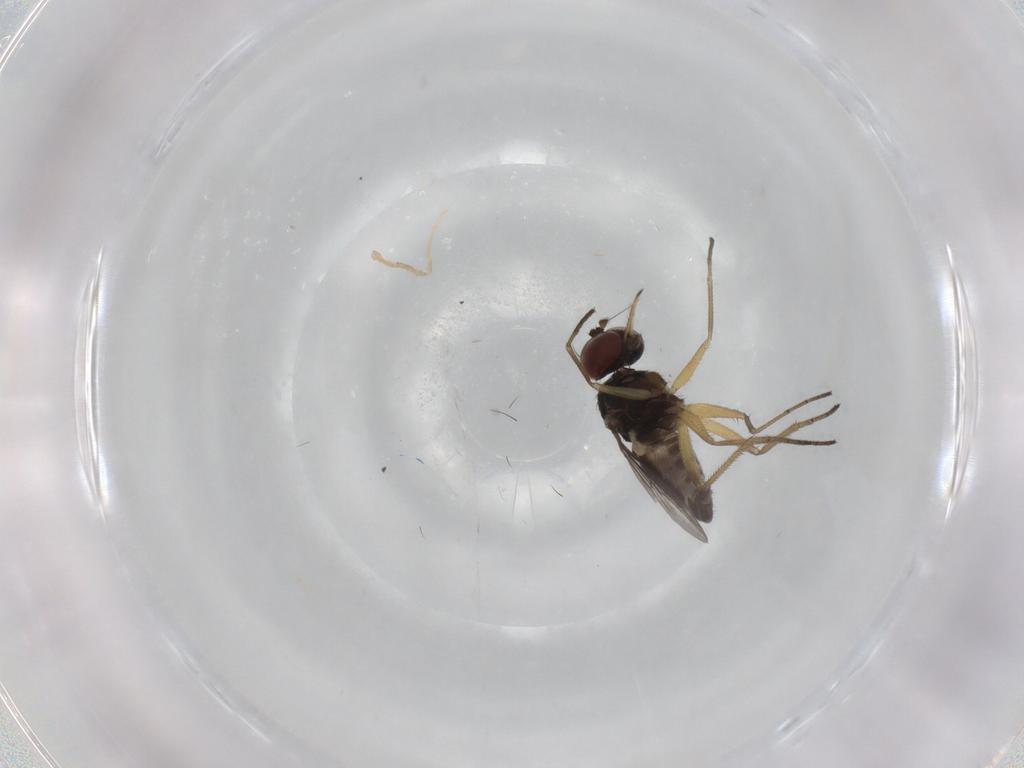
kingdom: Animalia
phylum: Arthropoda
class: Insecta
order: Diptera
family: Dolichopodidae
